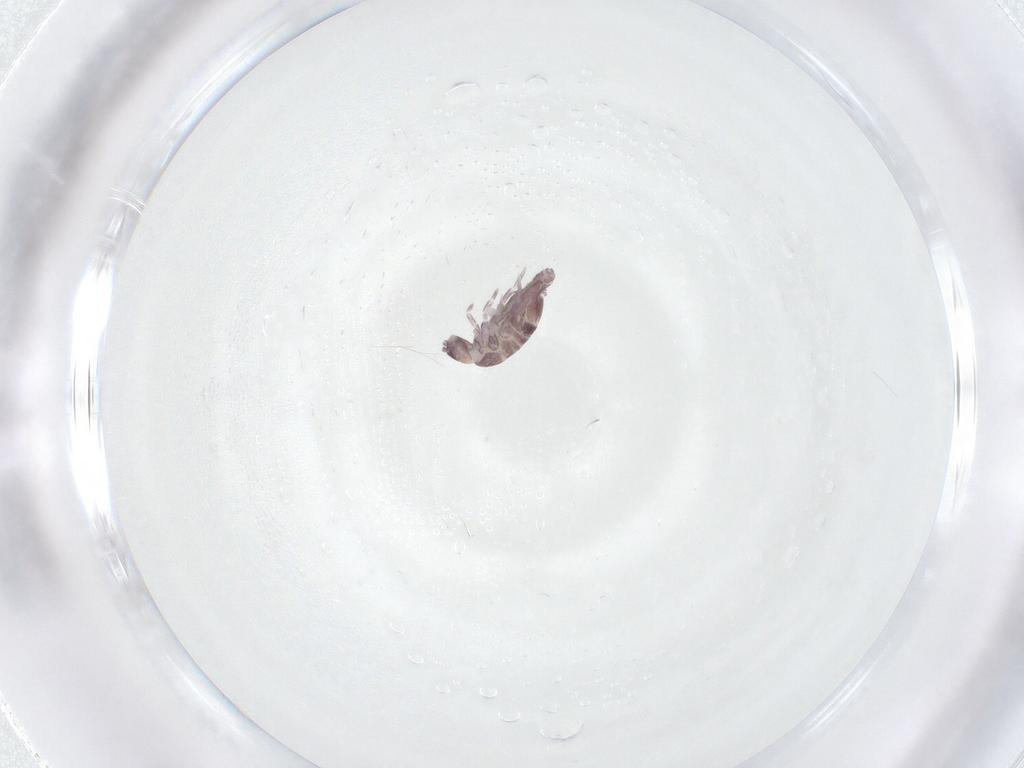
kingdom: Animalia
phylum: Arthropoda
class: Collembola
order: Entomobryomorpha
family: Entomobryidae
